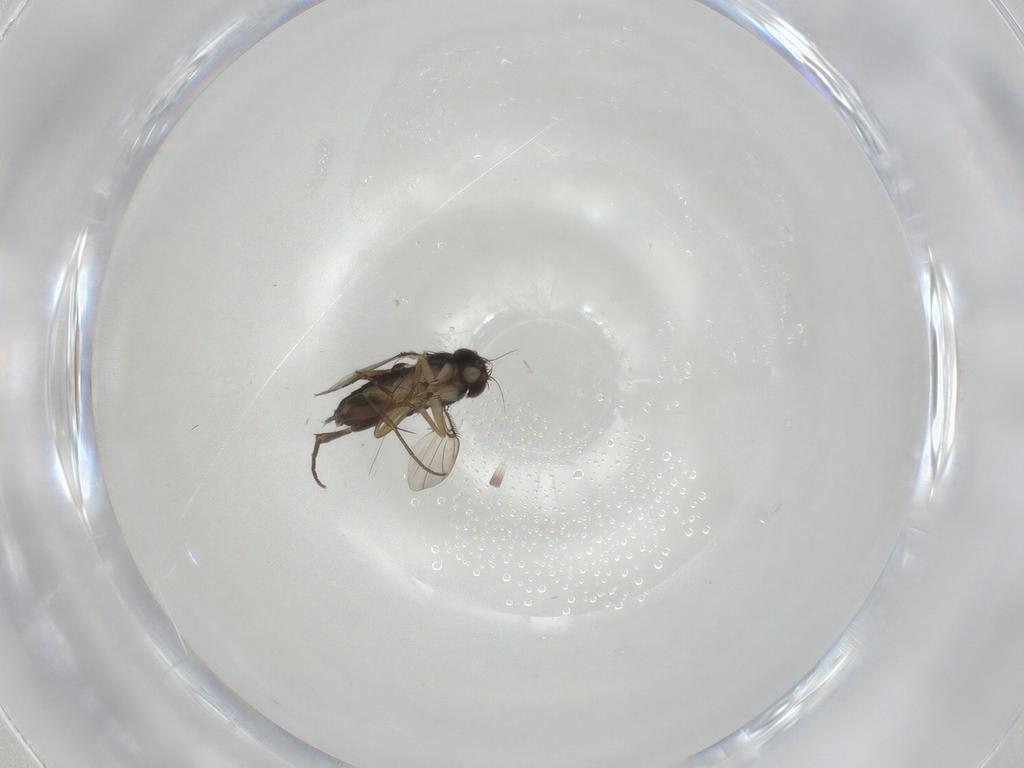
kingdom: Animalia
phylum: Arthropoda
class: Insecta
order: Diptera
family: Phoridae
